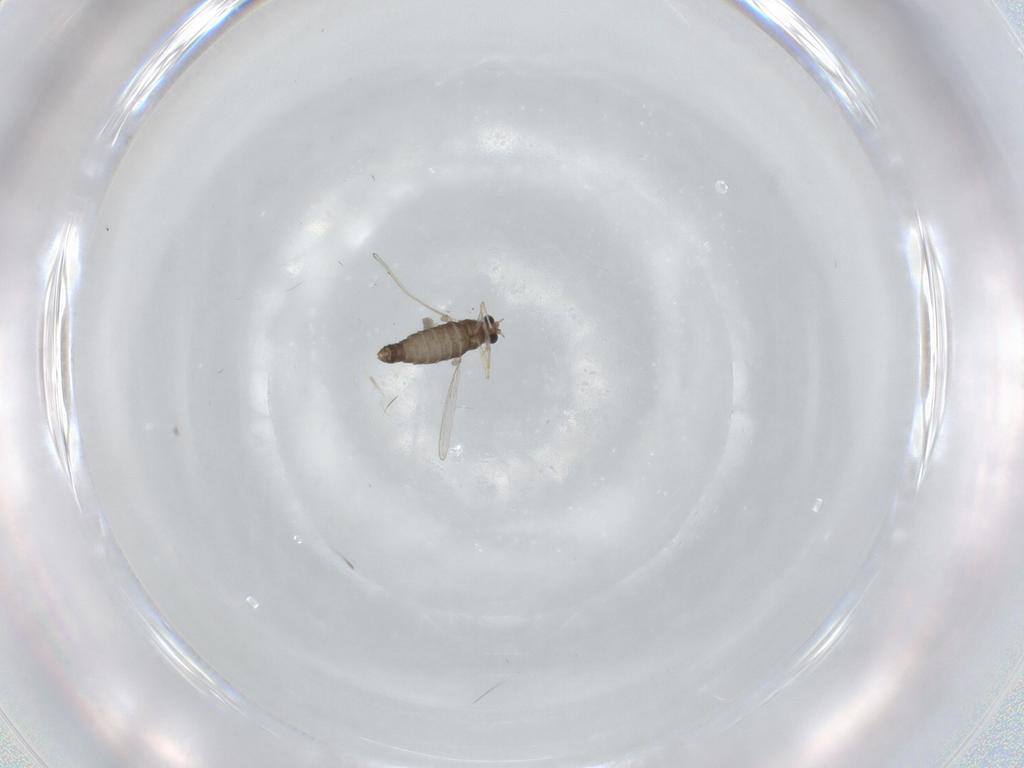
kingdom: Animalia
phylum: Arthropoda
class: Insecta
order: Diptera
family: Chironomidae
